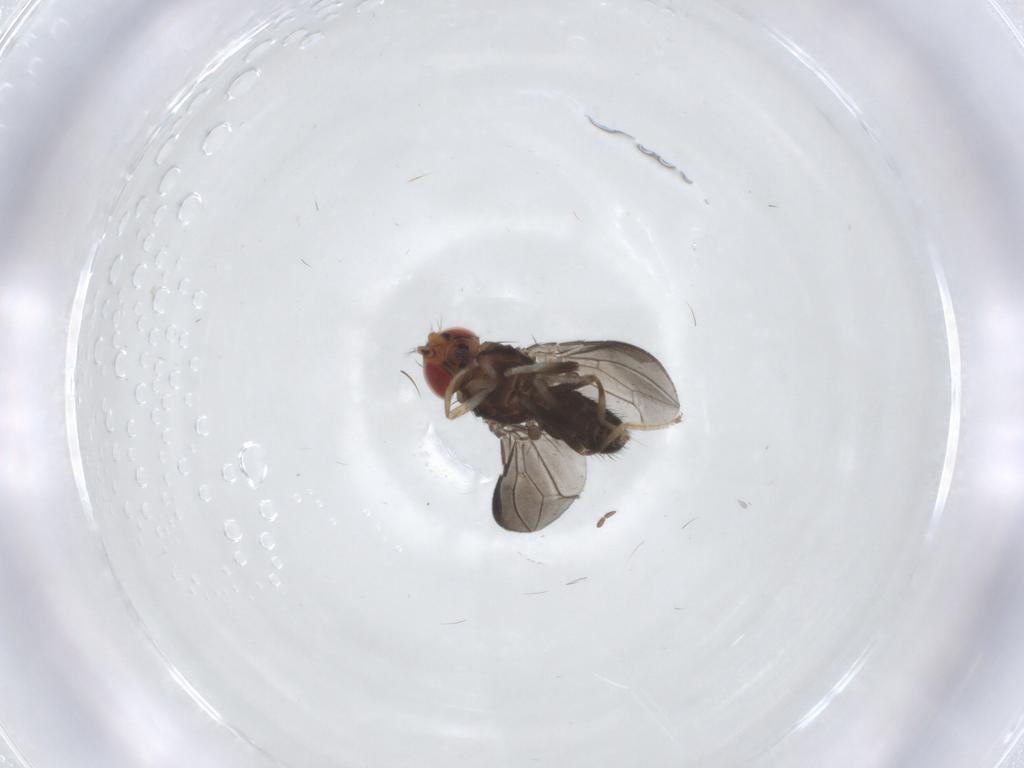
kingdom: Animalia
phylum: Arthropoda
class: Insecta
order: Diptera
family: Drosophilidae
